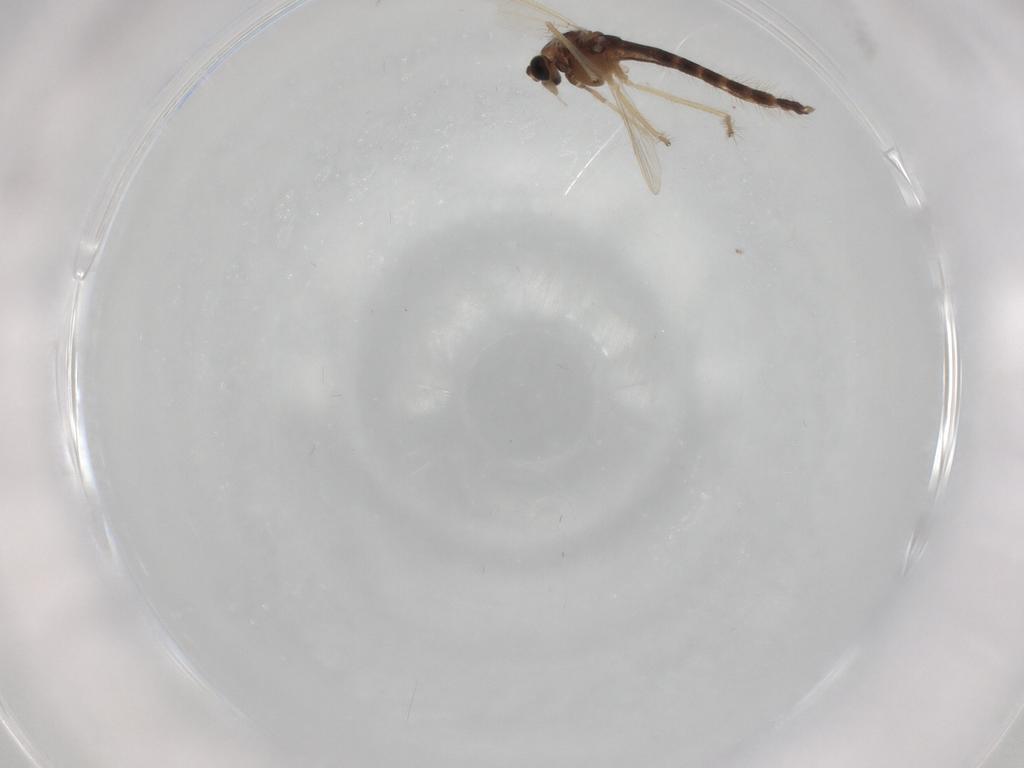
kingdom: Animalia
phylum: Arthropoda
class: Insecta
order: Diptera
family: Chironomidae
